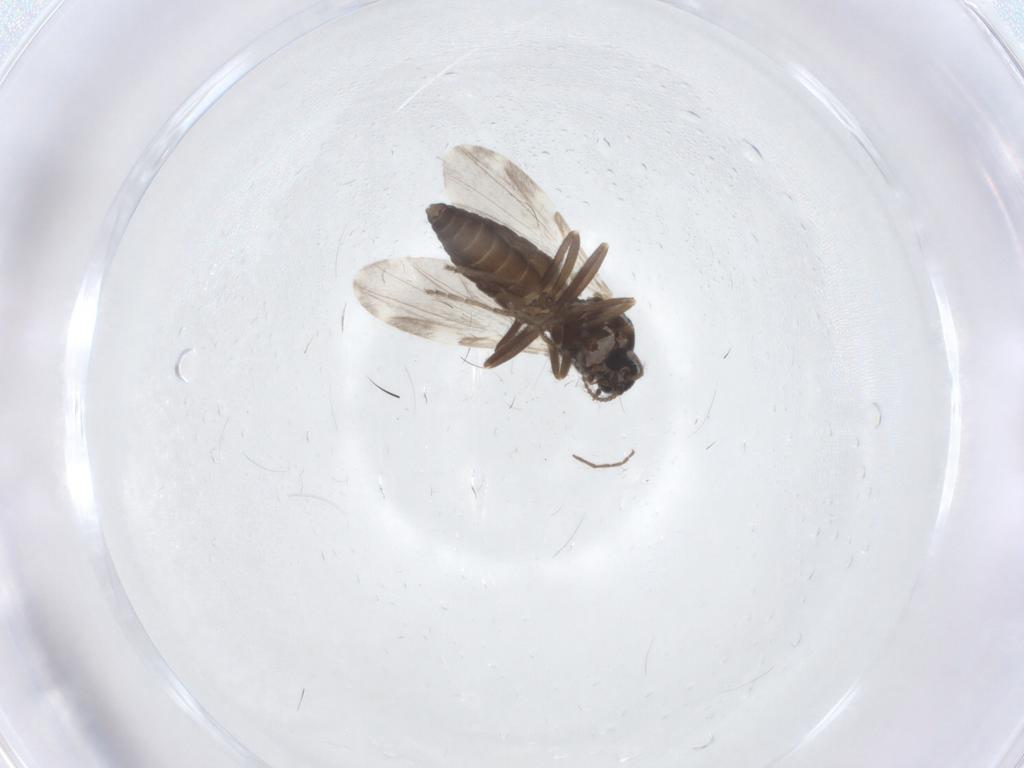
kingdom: Animalia
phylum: Arthropoda
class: Insecta
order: Diptera
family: Ceratopogonidae
